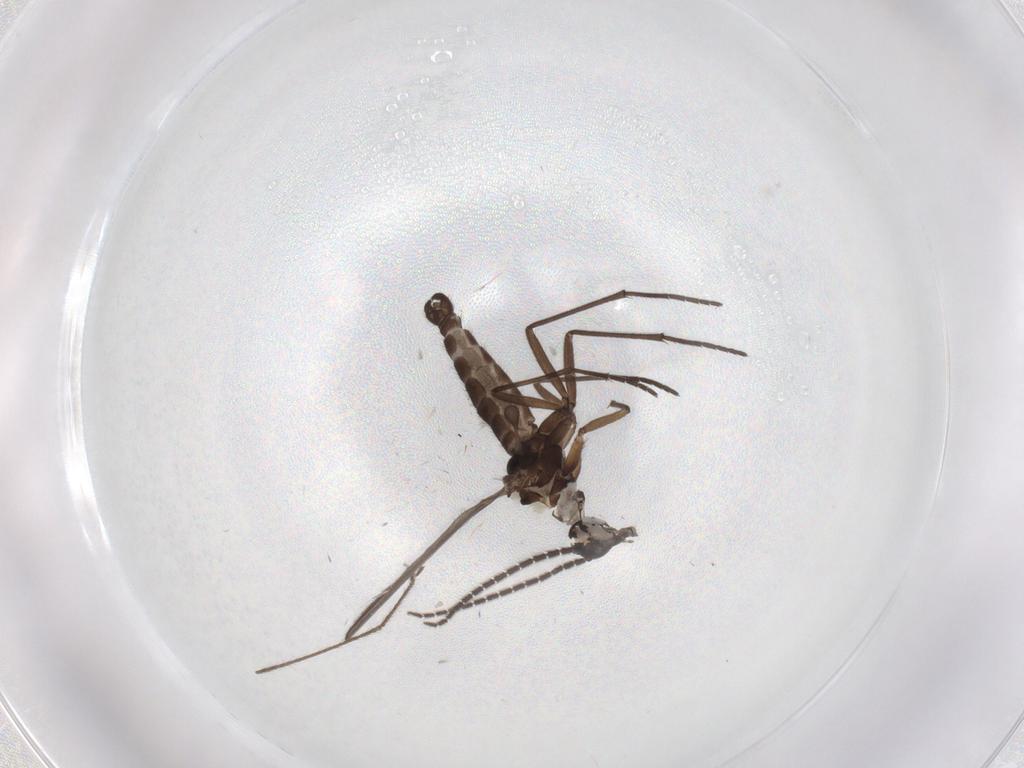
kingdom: Animalia
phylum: Arthropoda
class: Insecta
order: Diptera
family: Sciaridae
